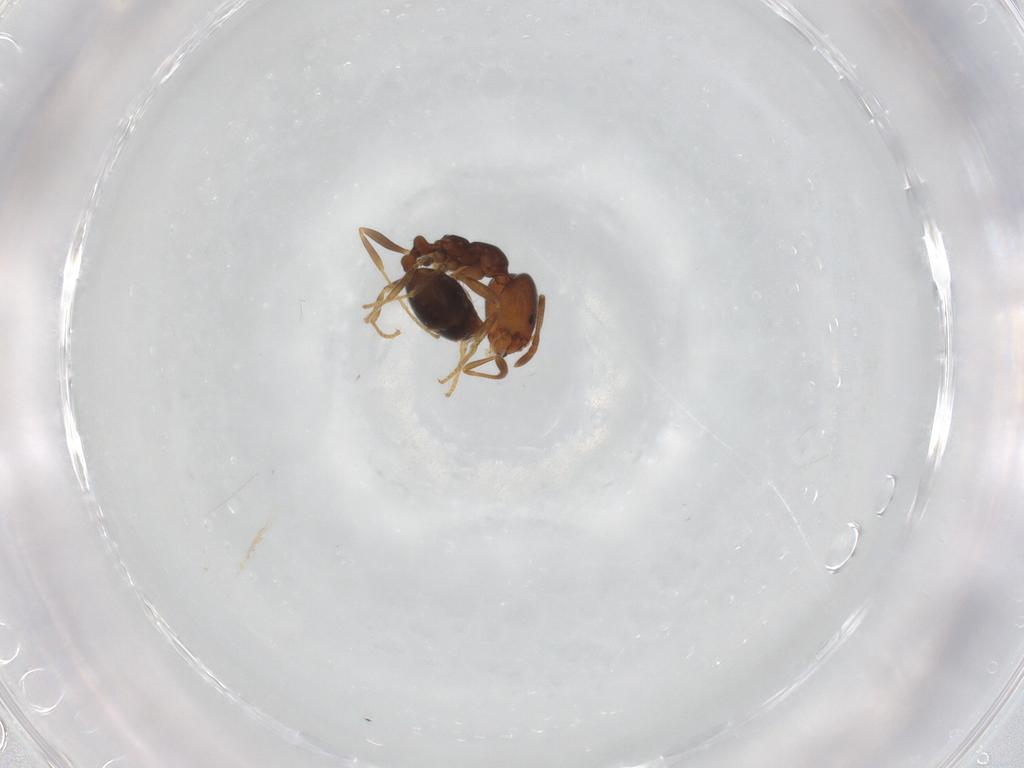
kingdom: Animalia
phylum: Arthropoda
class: Insecta
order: Hymenoptera
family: Formicidae
